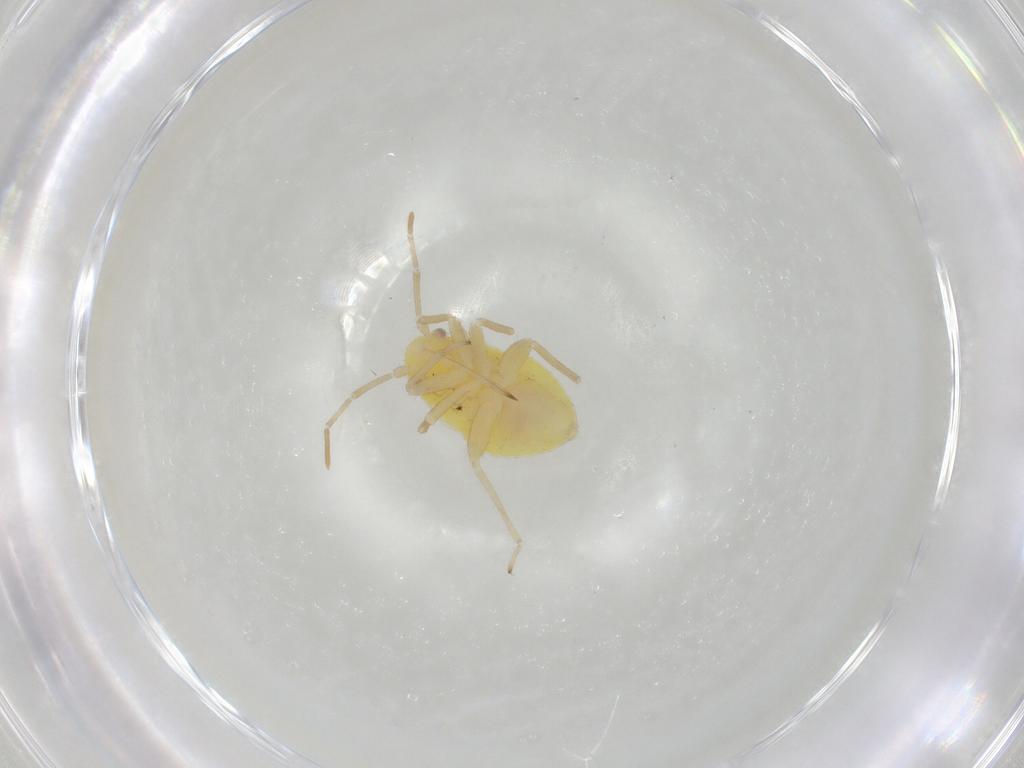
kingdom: Animalia
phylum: Arthropoda
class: Insecta
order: Hemiptera
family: Miridae
